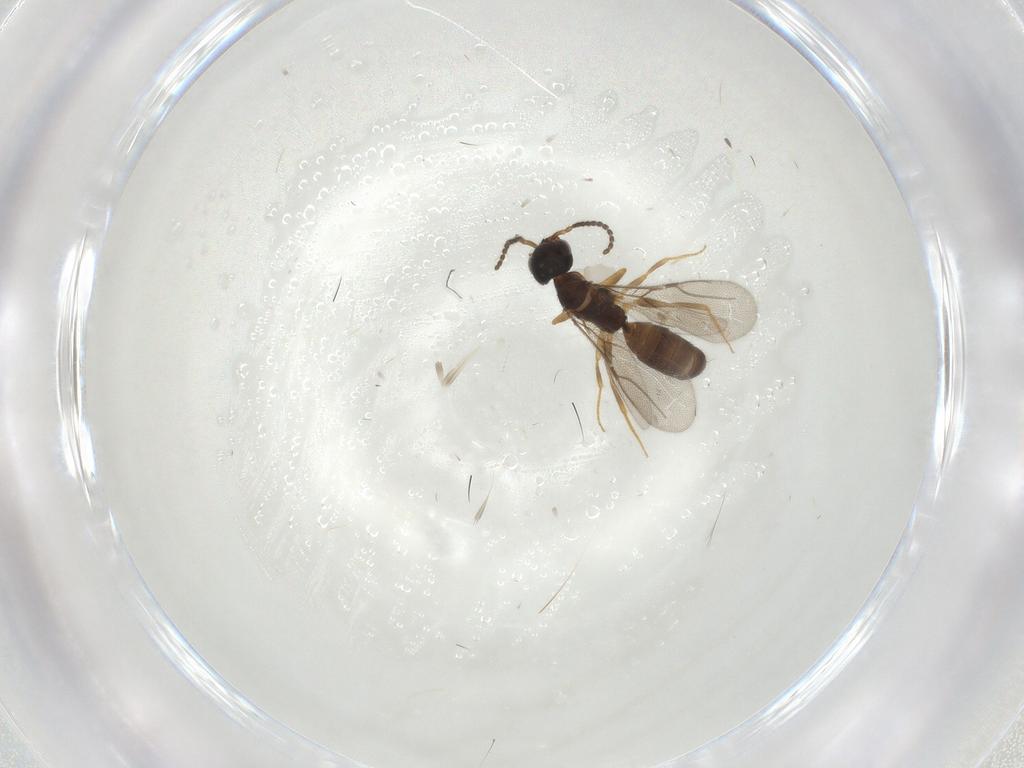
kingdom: Animalia
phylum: Arthropoda
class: Insecta
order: Hymenoptera
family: Bethylidae
